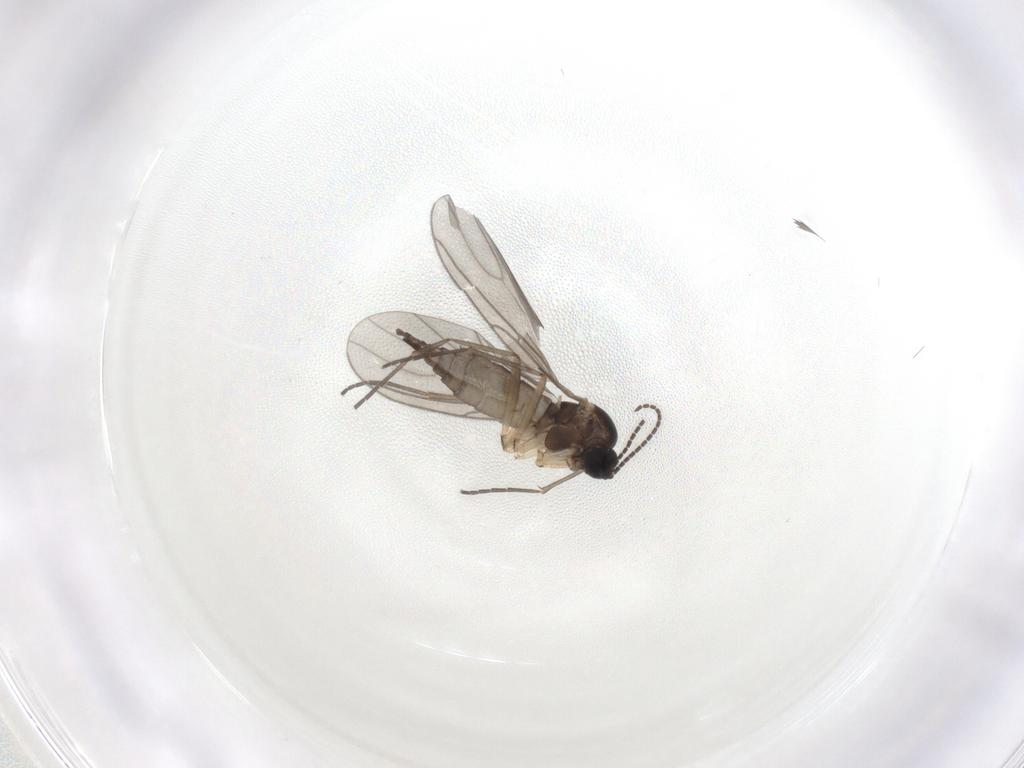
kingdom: Animalia
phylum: Arthropoda
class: Insecta
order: Diptera
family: Sciaridae
